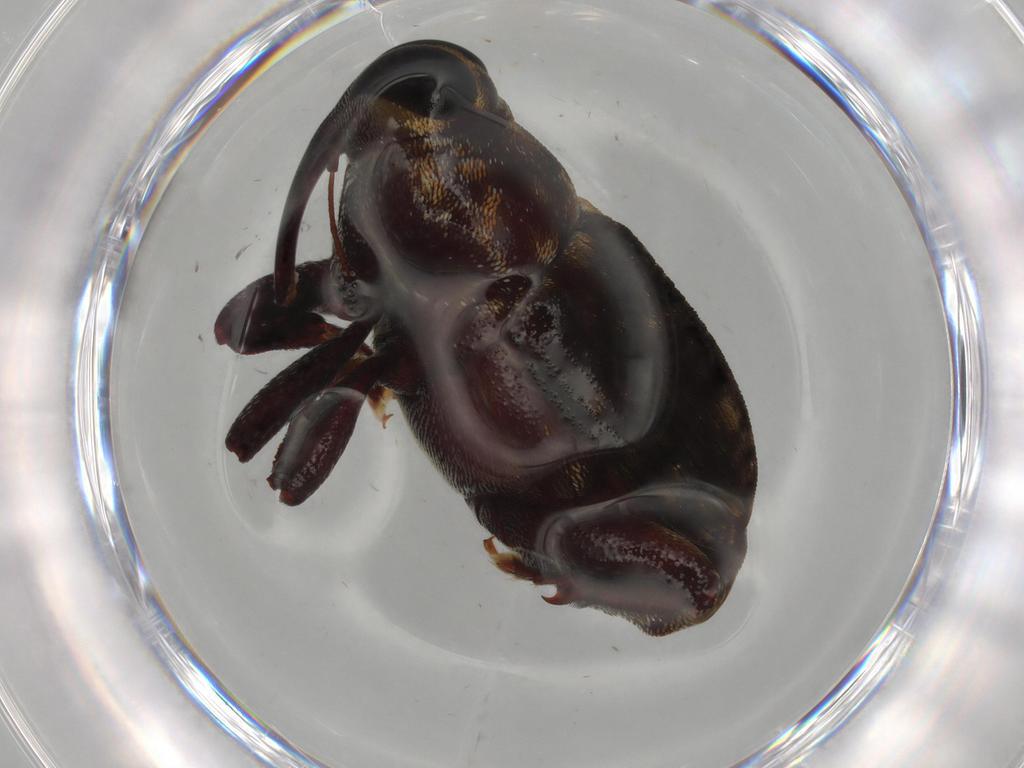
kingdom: Animalia
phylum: Arthropoda
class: Insecta
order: Coleoptera
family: Curculionidae
